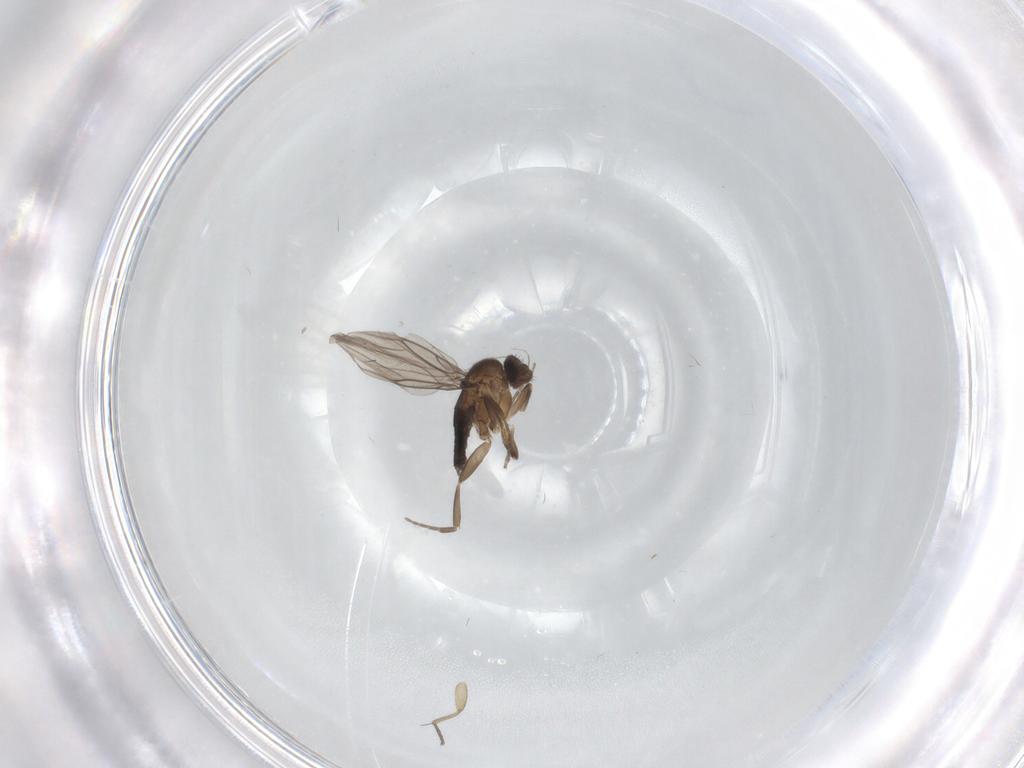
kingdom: Animalia
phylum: Arthropoda
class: Insecta
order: Diptera
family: Cecidomyiidae
